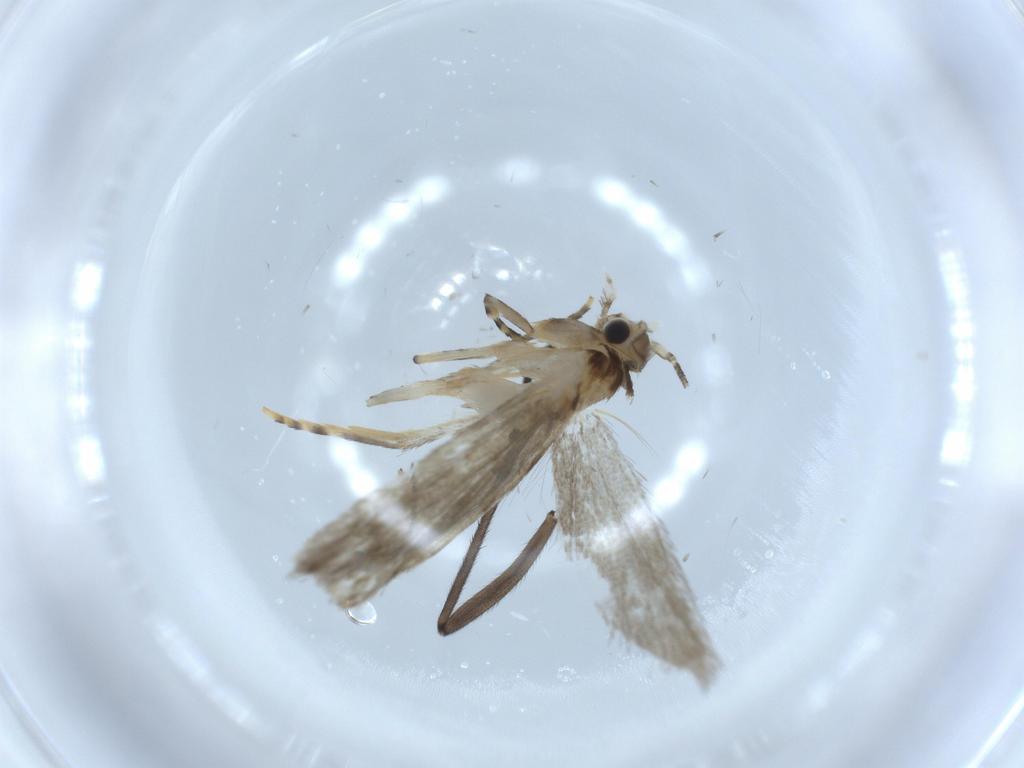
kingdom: Animalia
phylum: Arthropoda
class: Insecta
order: Lepidoptera
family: Tineidae
